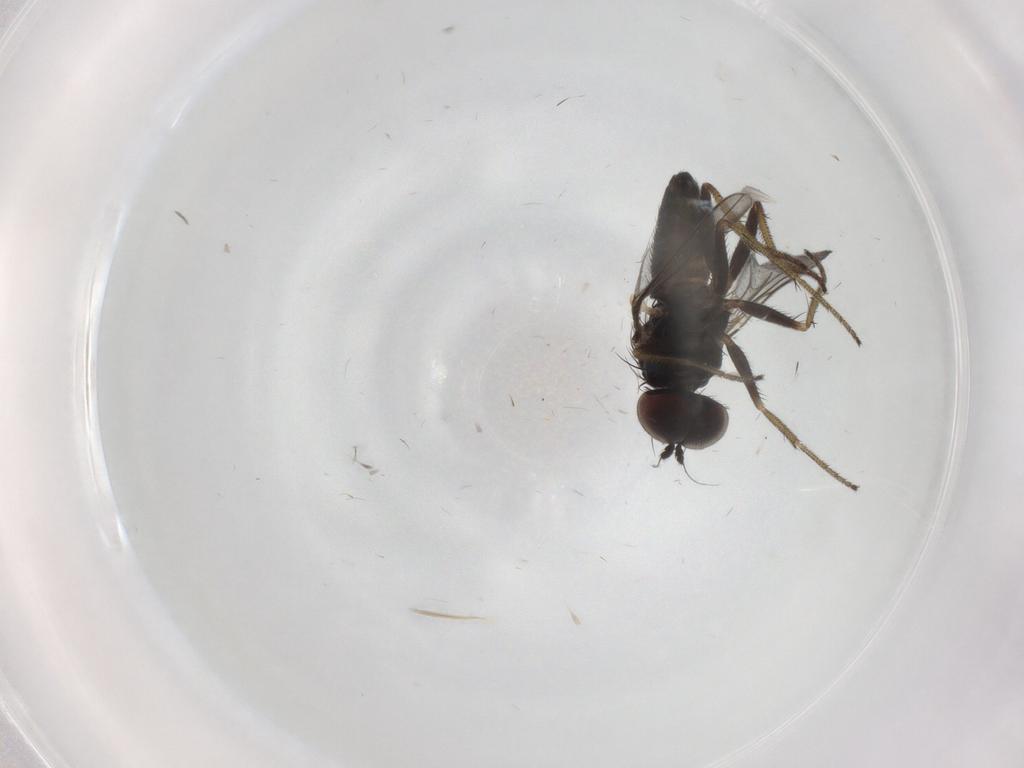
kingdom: Animalia
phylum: Arthropoda
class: Insecta
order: Diptera
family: Dolichopodidae
